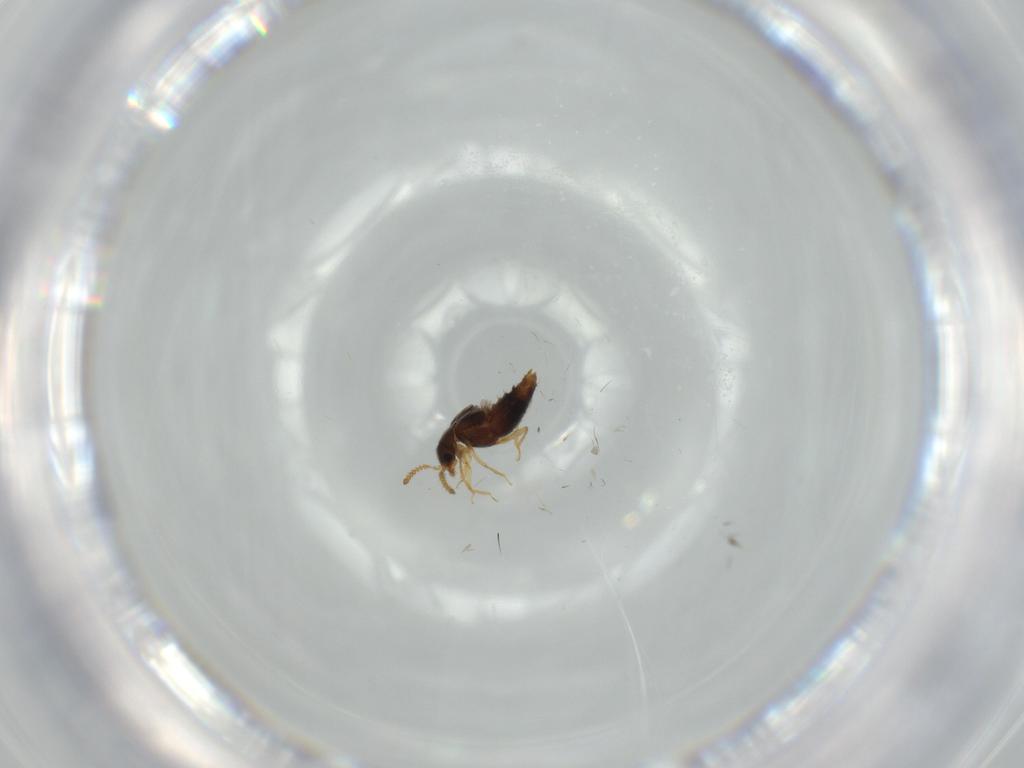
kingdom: Animalia
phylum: Arthropoda
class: Insecta
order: Coleoptera
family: Staphylinidae
